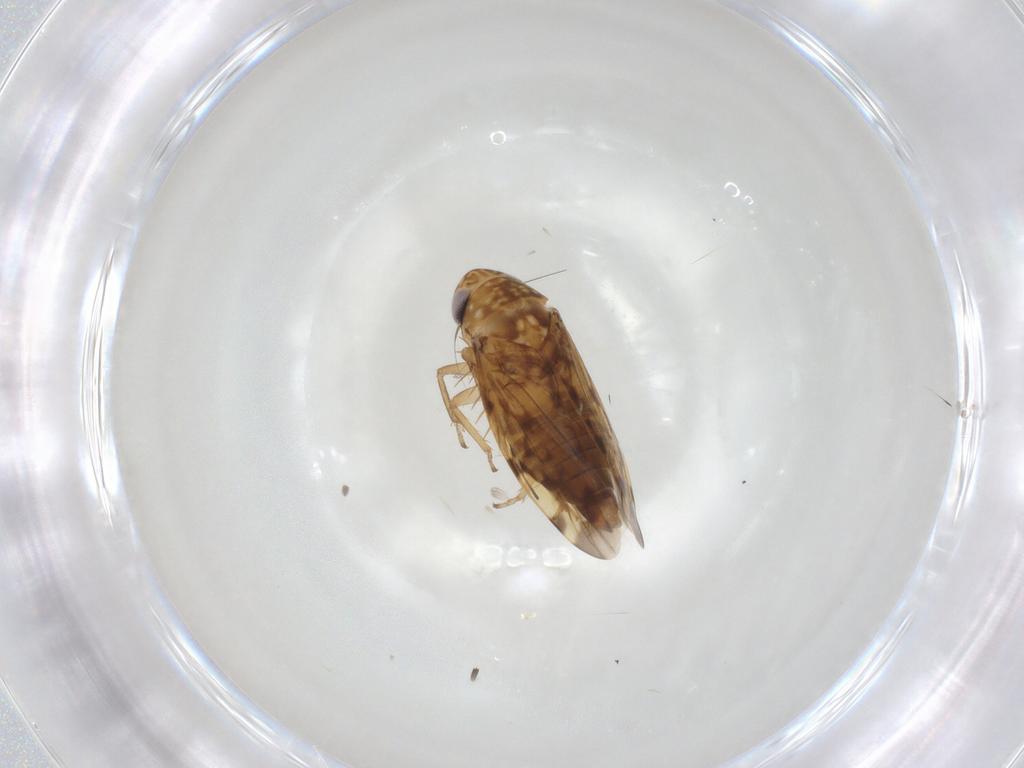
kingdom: Animalia
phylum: Arthropoda
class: Insecta
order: Hemiptera
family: Cicadellidae
